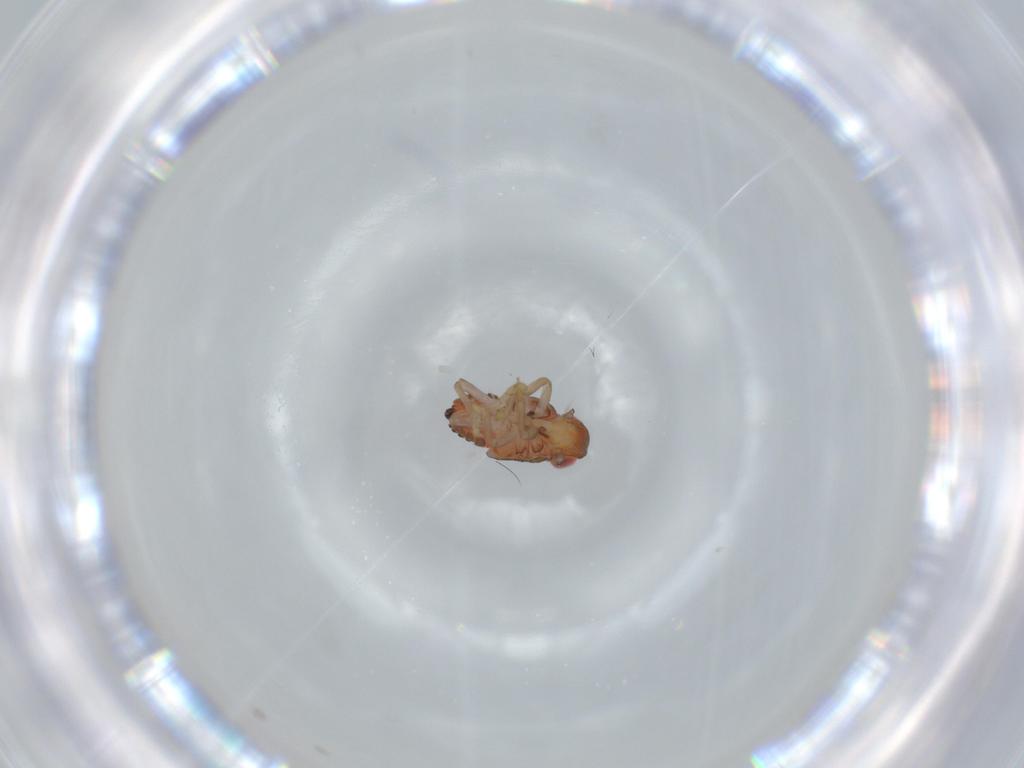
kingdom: Animalia
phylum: Arthropoda
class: Insecta
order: Hemiptera
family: Issidae
